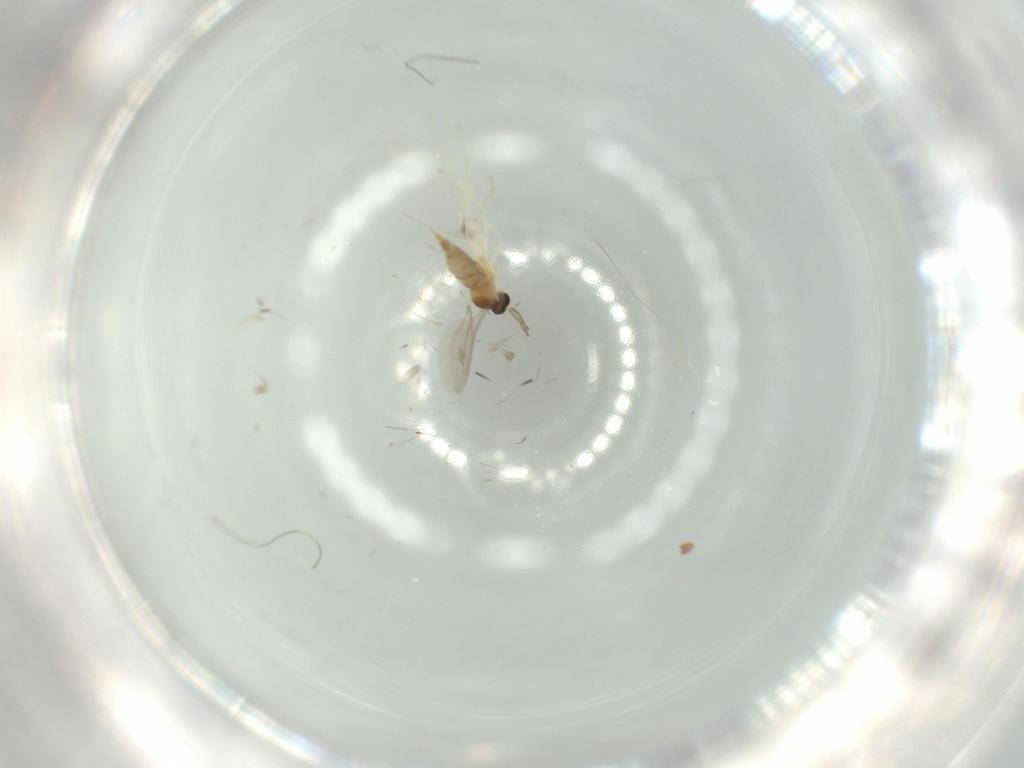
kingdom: Animalia
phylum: Arthropoda
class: Insecta
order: Diptera
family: Cecidomyiidae
